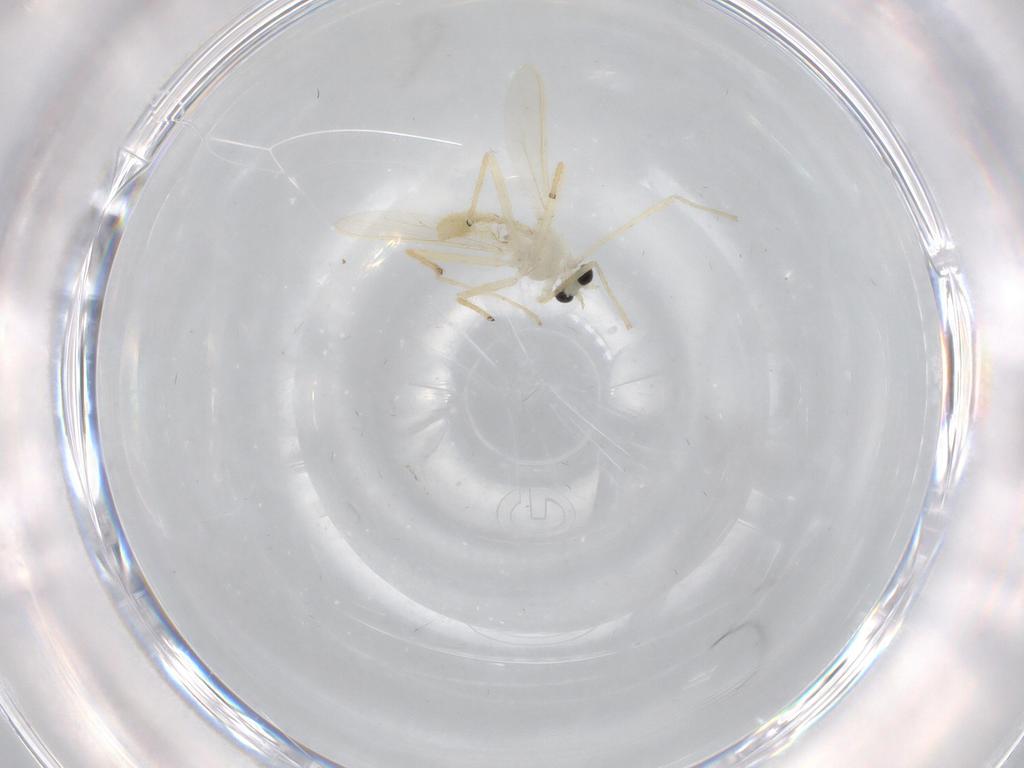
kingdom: Animalia
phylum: Arthropoda
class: Insecta
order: Diptera
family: Chironomidae
